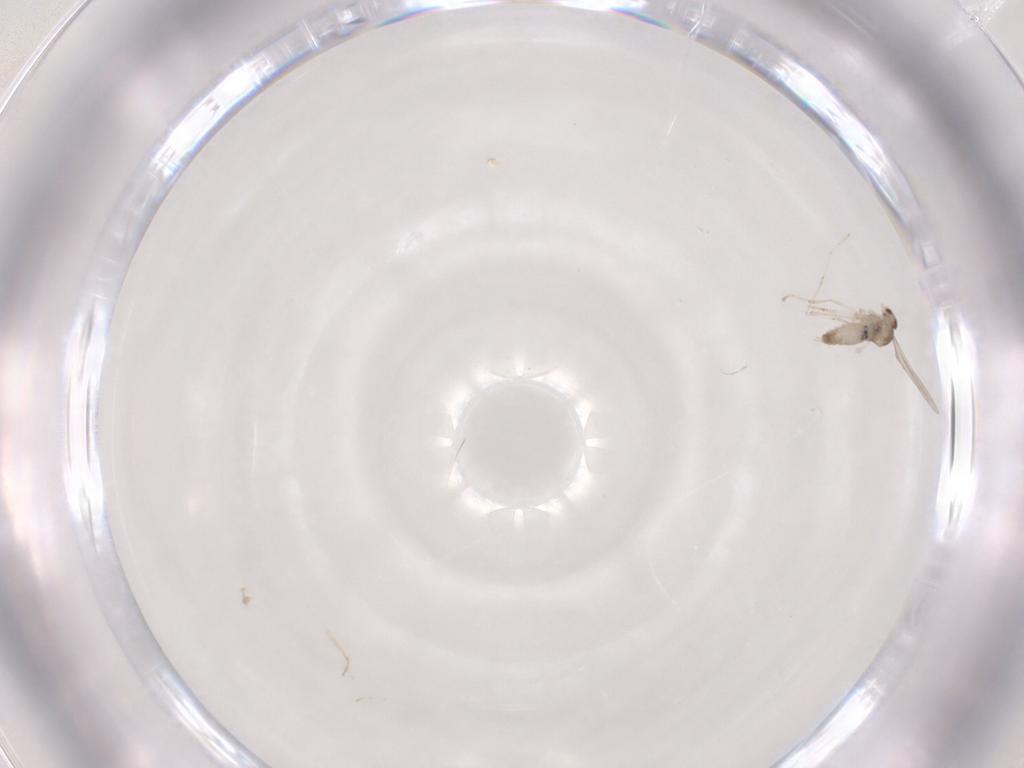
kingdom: Animalia
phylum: Arthropoda
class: Insecta
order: Diptera
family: Cecidomyiidae
